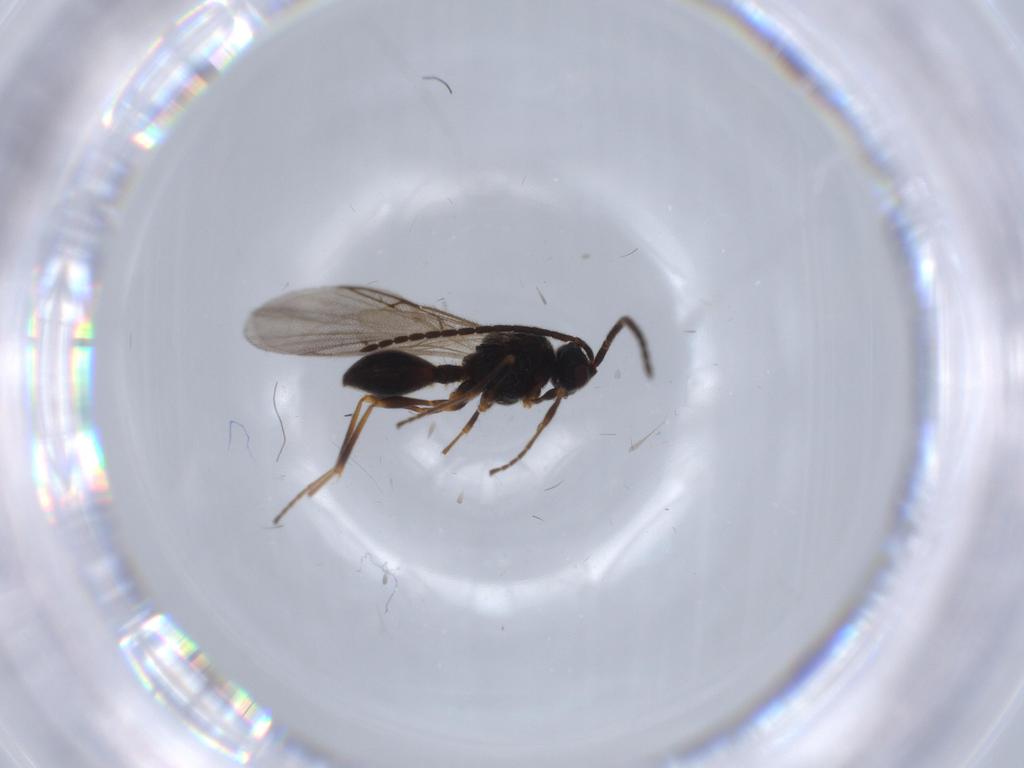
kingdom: Animalia
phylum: Arthropoda
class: Insecta
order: Hymenoptera
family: Diapriidae
